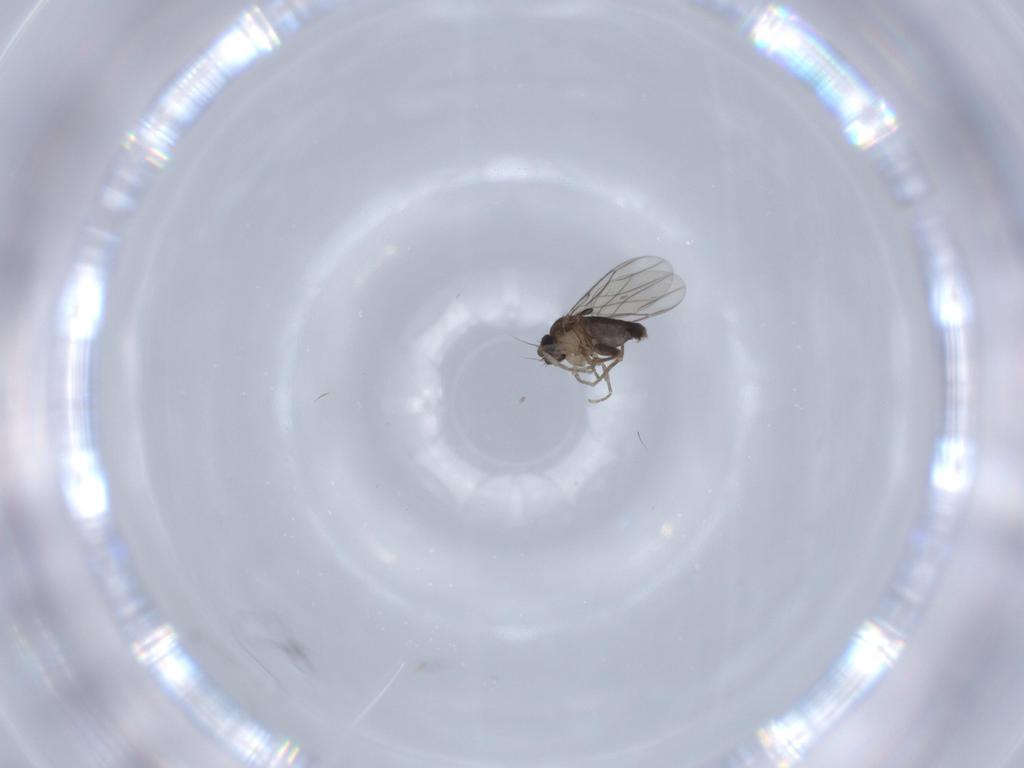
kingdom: Animalia
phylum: Arthropoda
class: Insecta
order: Diptera
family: Phoridae
